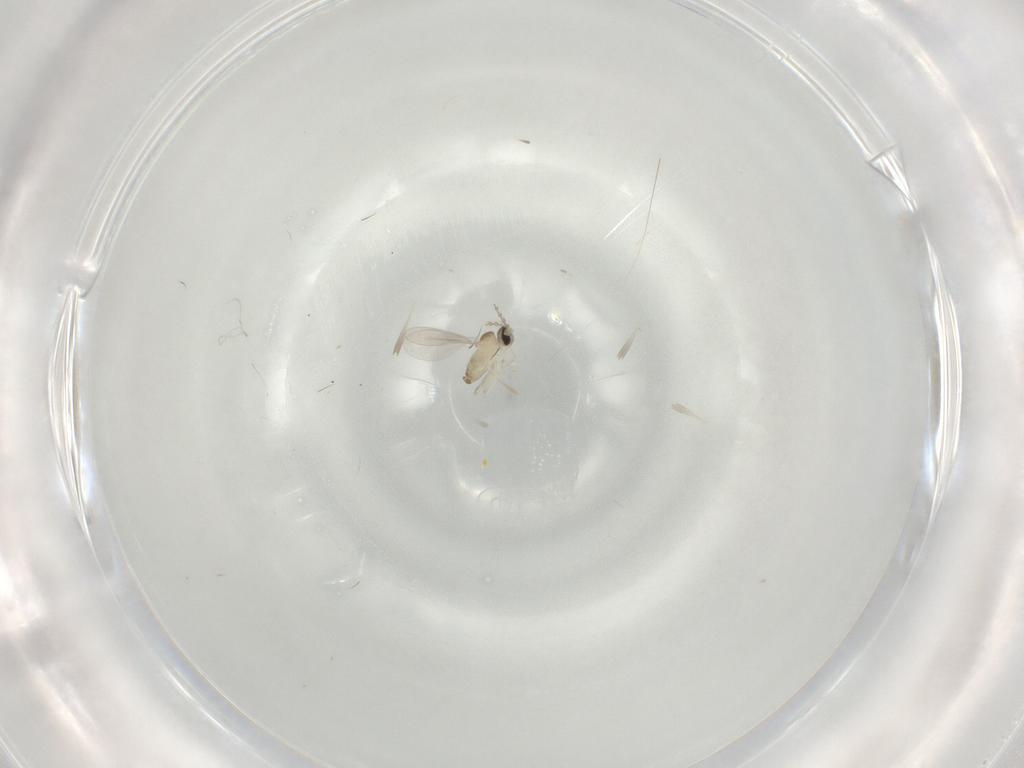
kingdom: Animalia
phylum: Arthropoda
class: Insecta
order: Diptera
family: Cecidomyiidae
